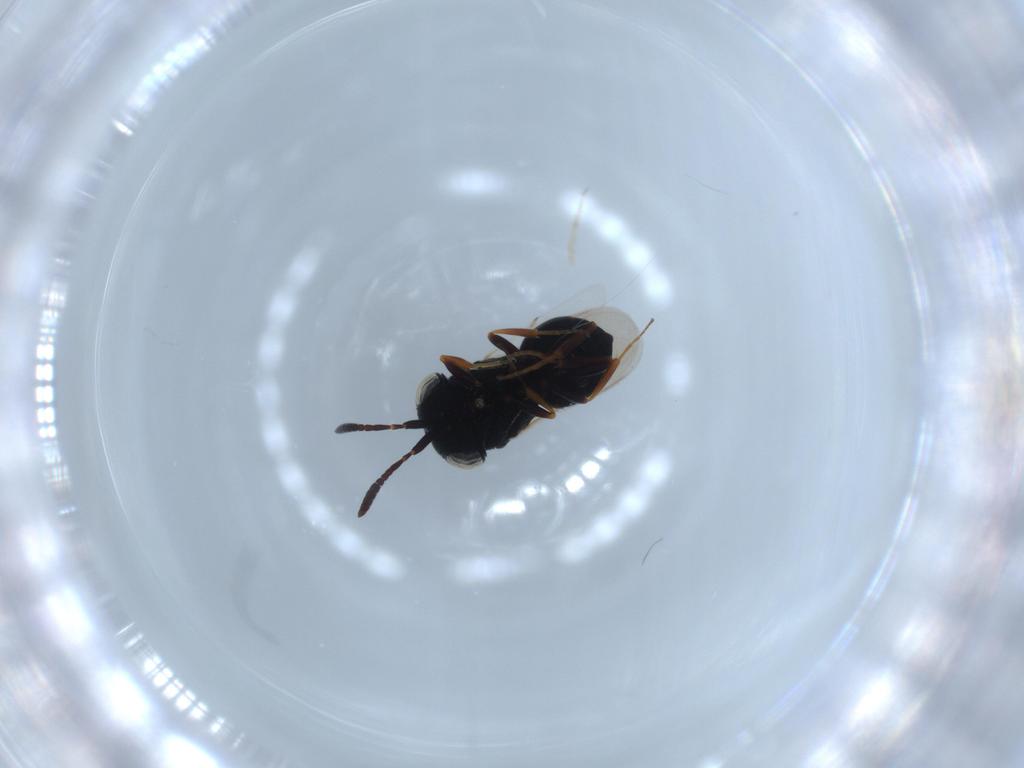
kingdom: Animalia
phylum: Arthropoda
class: Insecta
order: Hymenoptera
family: Scelionidae
